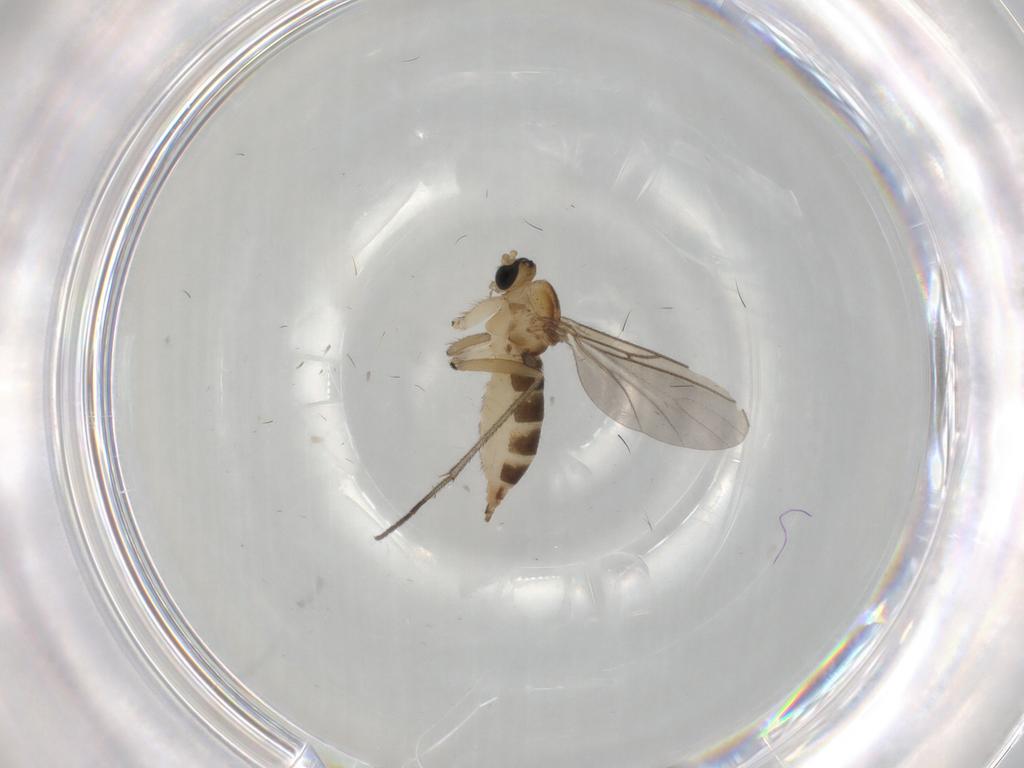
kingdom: Animalia
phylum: Arthropoda
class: Insecta
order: Diptera
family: Sciaridae
